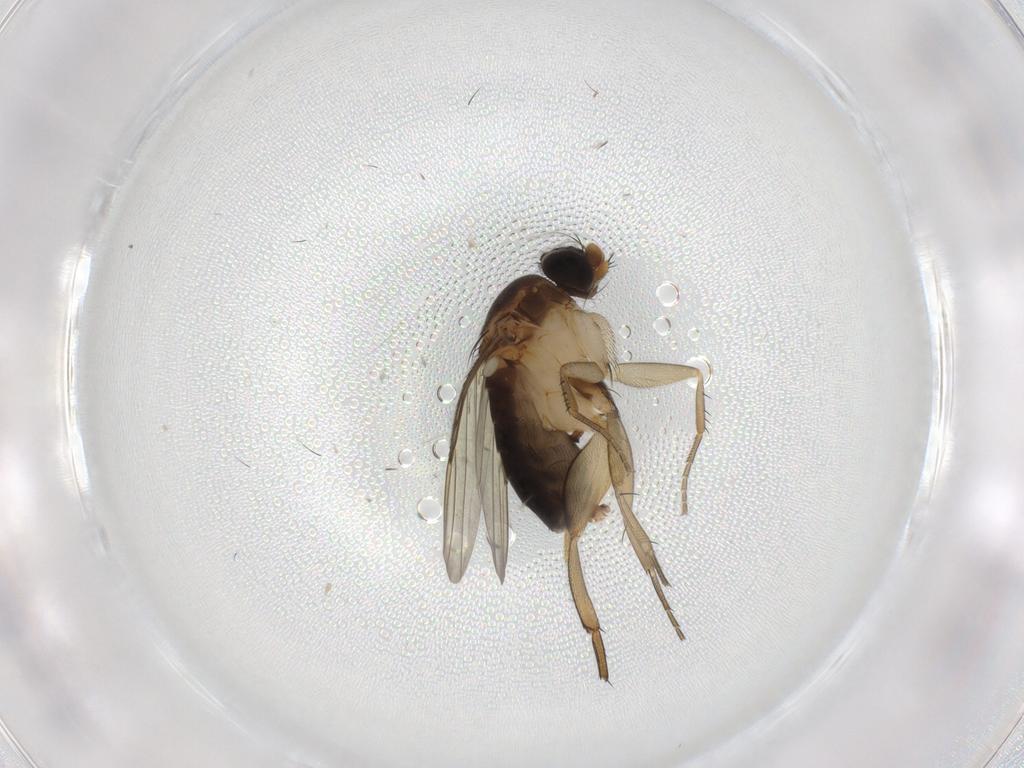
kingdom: Animalia
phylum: Arthropoda
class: Insecta
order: Diptera
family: Phoridae
